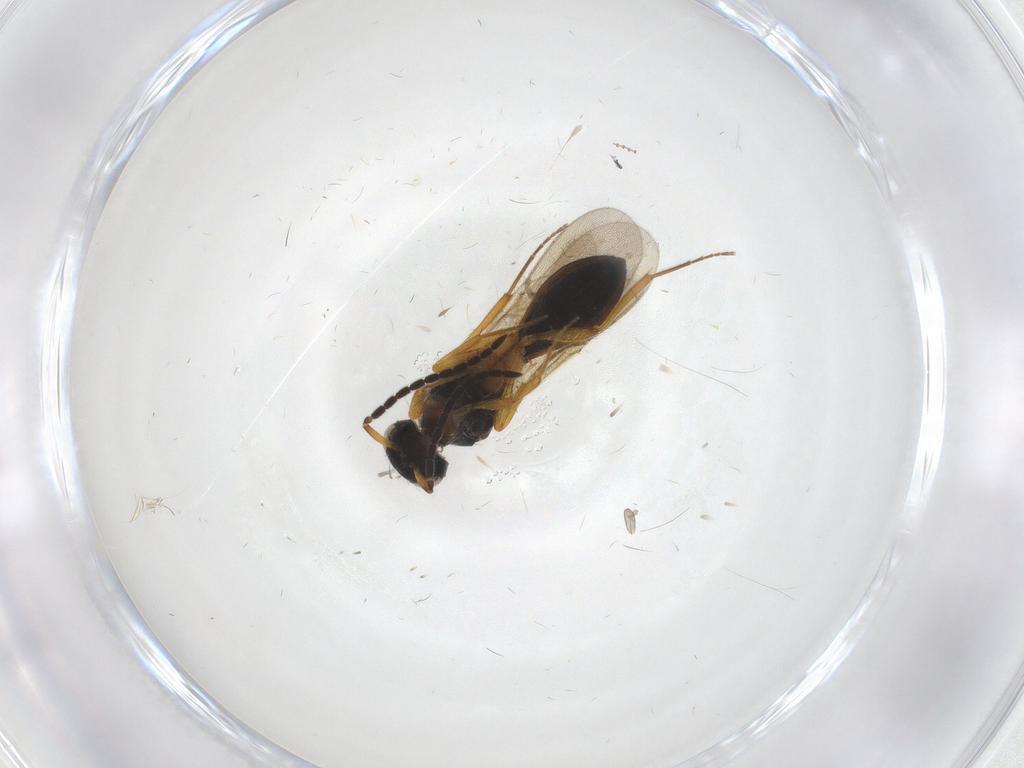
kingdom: Animalia
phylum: Arthropoda
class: Insecta
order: Hymenoptera
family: Scelionidae
